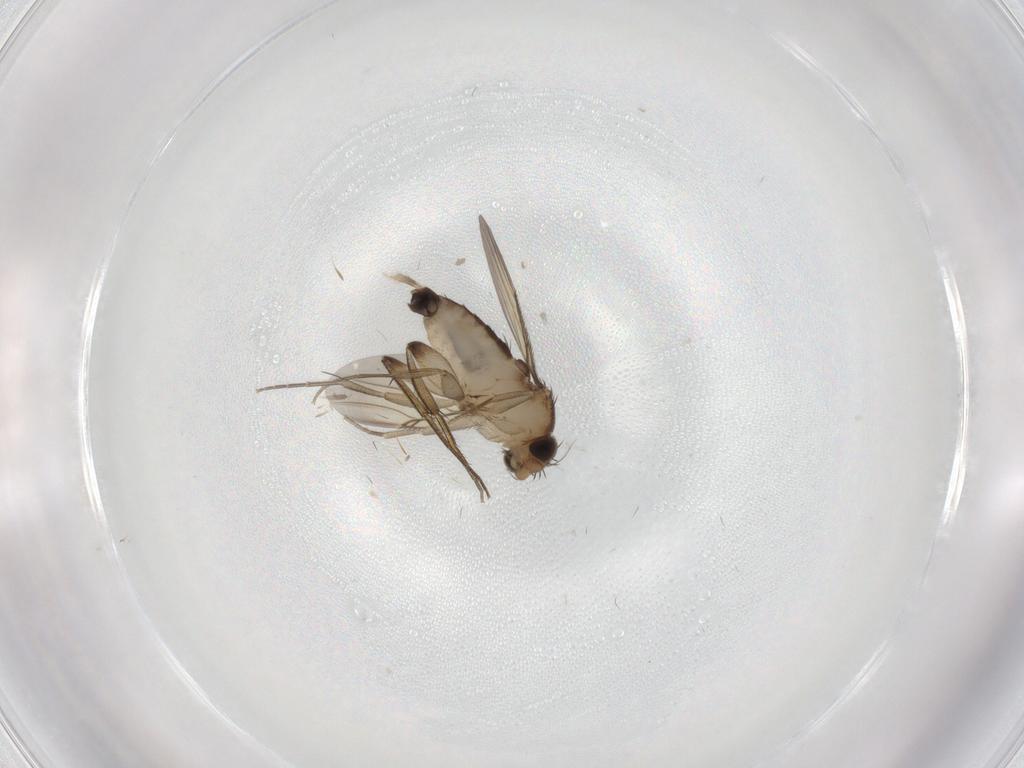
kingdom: Animalia
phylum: Arthropoda
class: Insecta
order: Diptera
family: Phoridae
